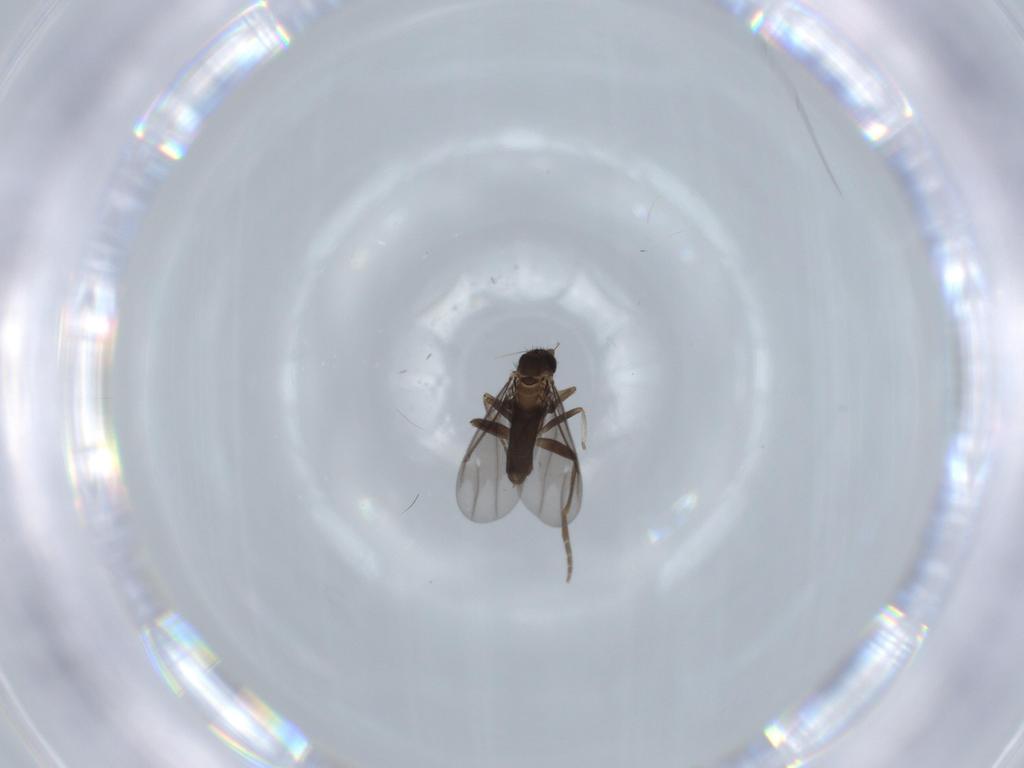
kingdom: Animalia
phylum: Arthropoda
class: Insecta
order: Diptera
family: Phoridae
